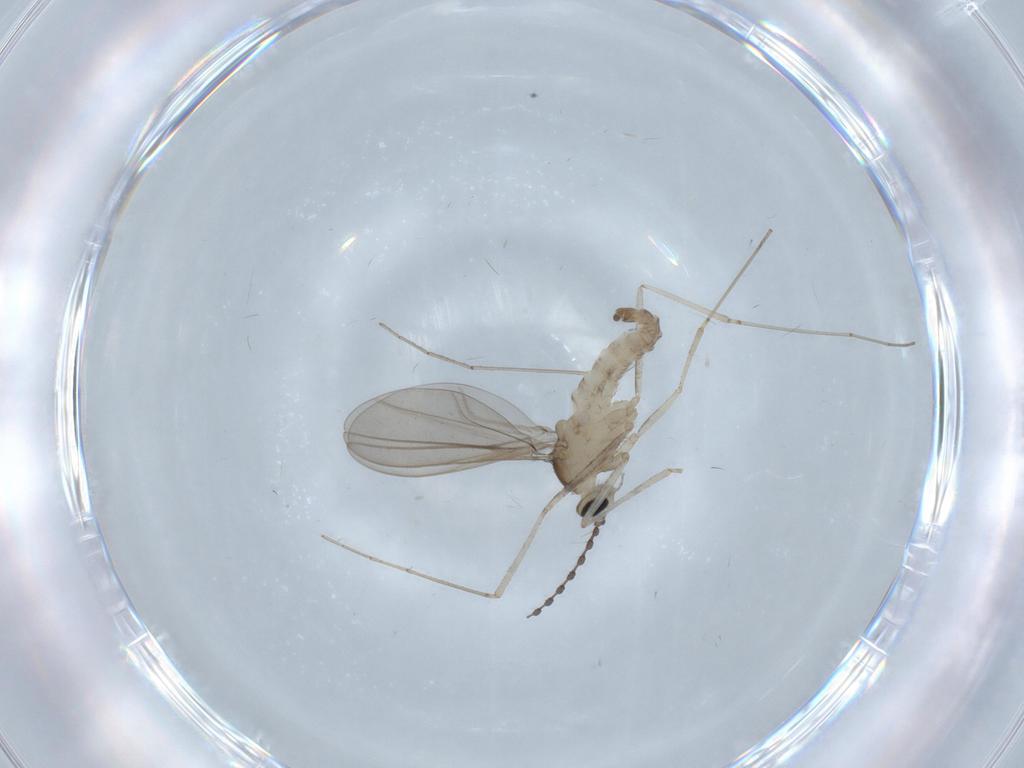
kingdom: Animalia
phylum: Arthropoda
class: Insecta
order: Diptera
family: Cecidomyiidae
